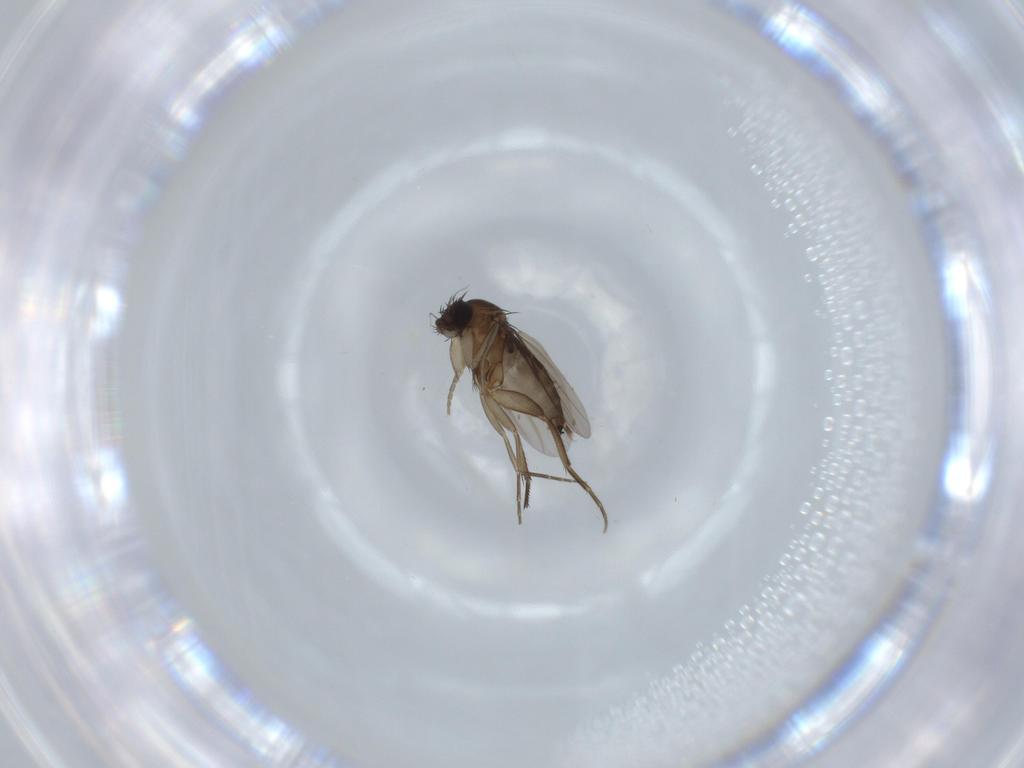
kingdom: Animalia
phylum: Arthropoda
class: Insecta
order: Diptera
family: Phoridae
